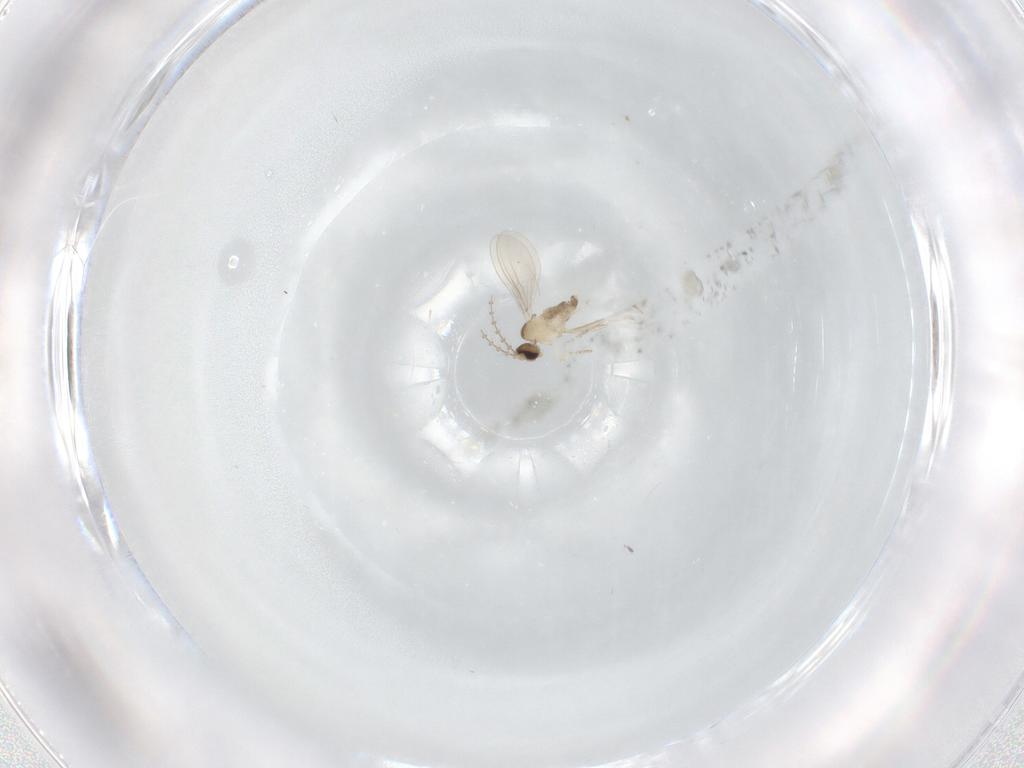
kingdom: Animalia
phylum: Arthropoda
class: Insecta
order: Diptera
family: Cecidomyiidae
